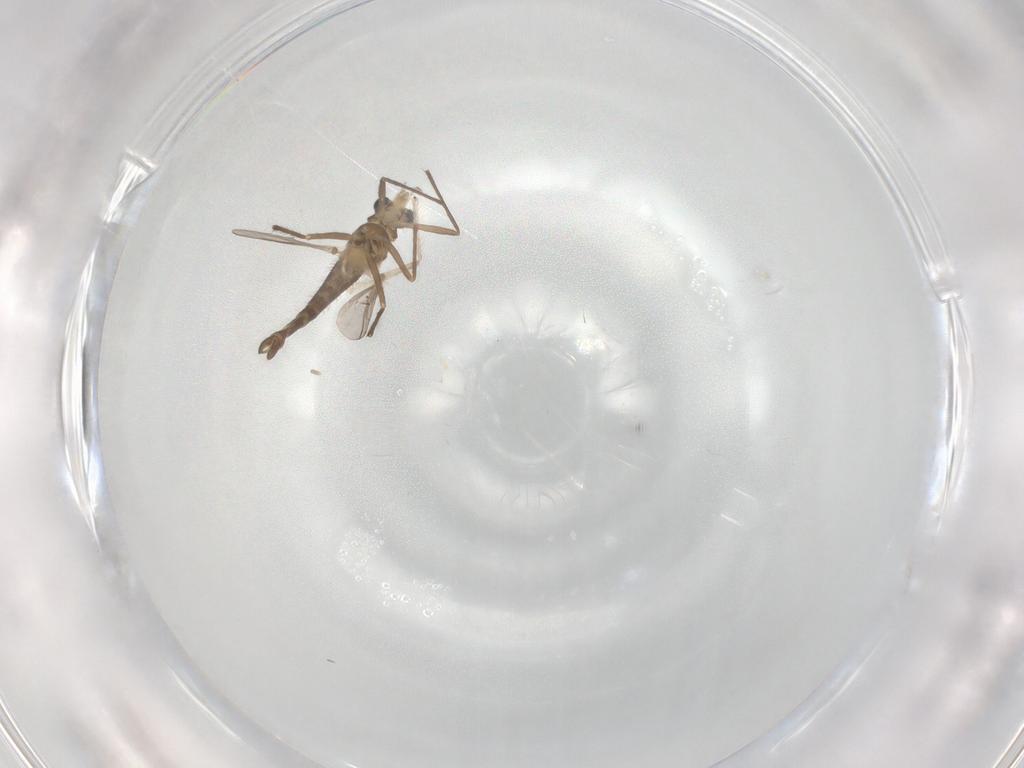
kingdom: Animalia
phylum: Arthropoda
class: Insecta
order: Diptera
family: Chironomidae
